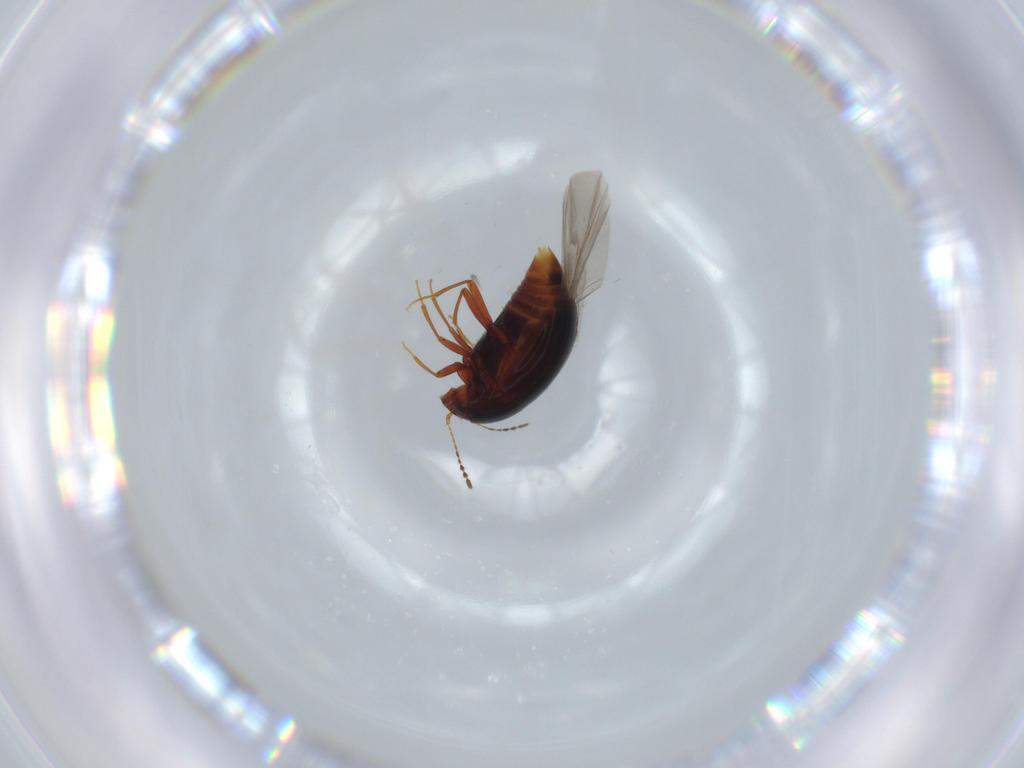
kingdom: Animalia
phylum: Arthropoda
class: Insecta
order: Coleoptera
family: Staphylinidae
